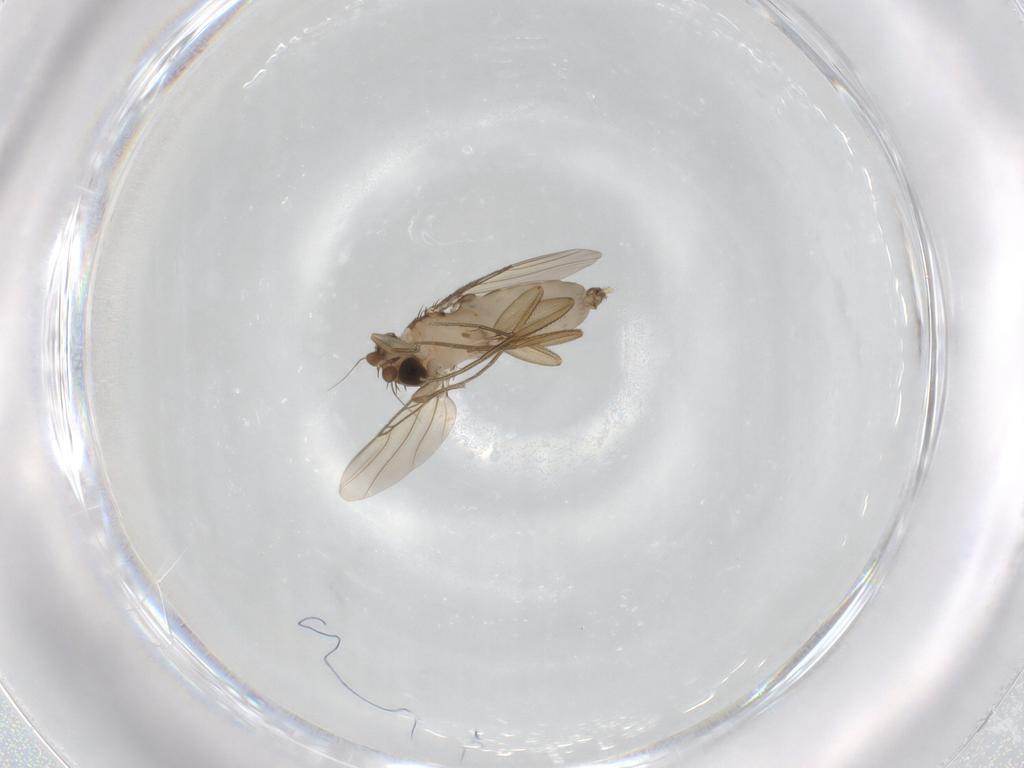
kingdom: Animalia
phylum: Arthropoda
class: Insecta
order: Diptera
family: Phoridae
